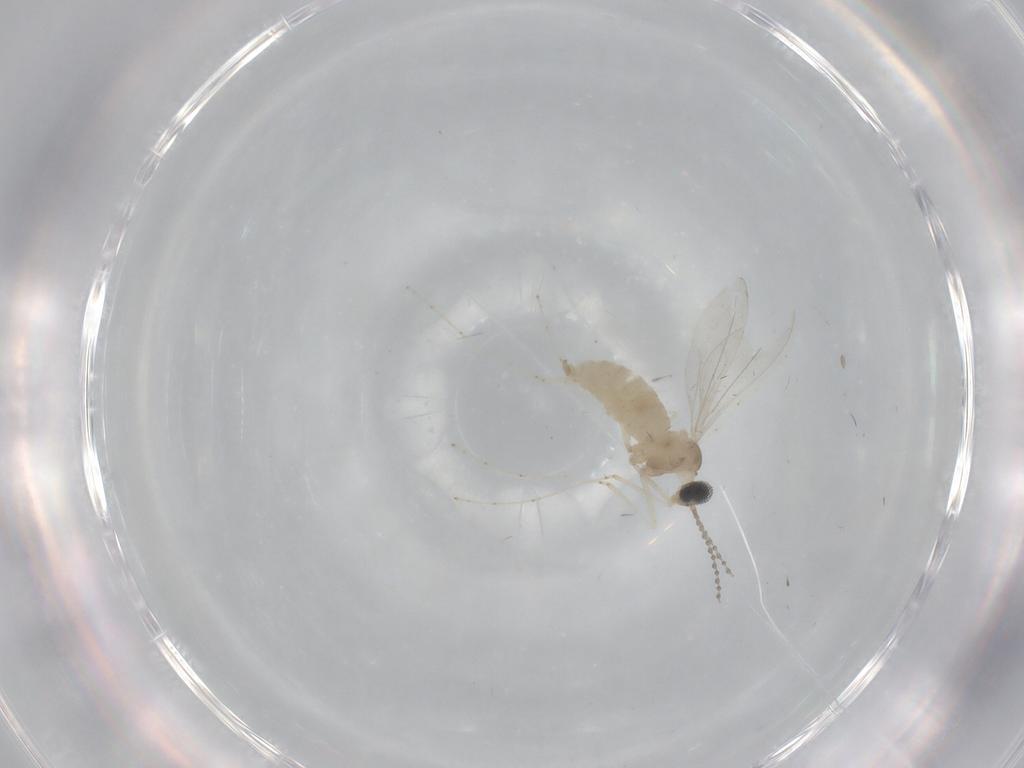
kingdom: Animalia
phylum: Arthropoda
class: Insecta
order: Diptera
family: Cecidomyiidae
